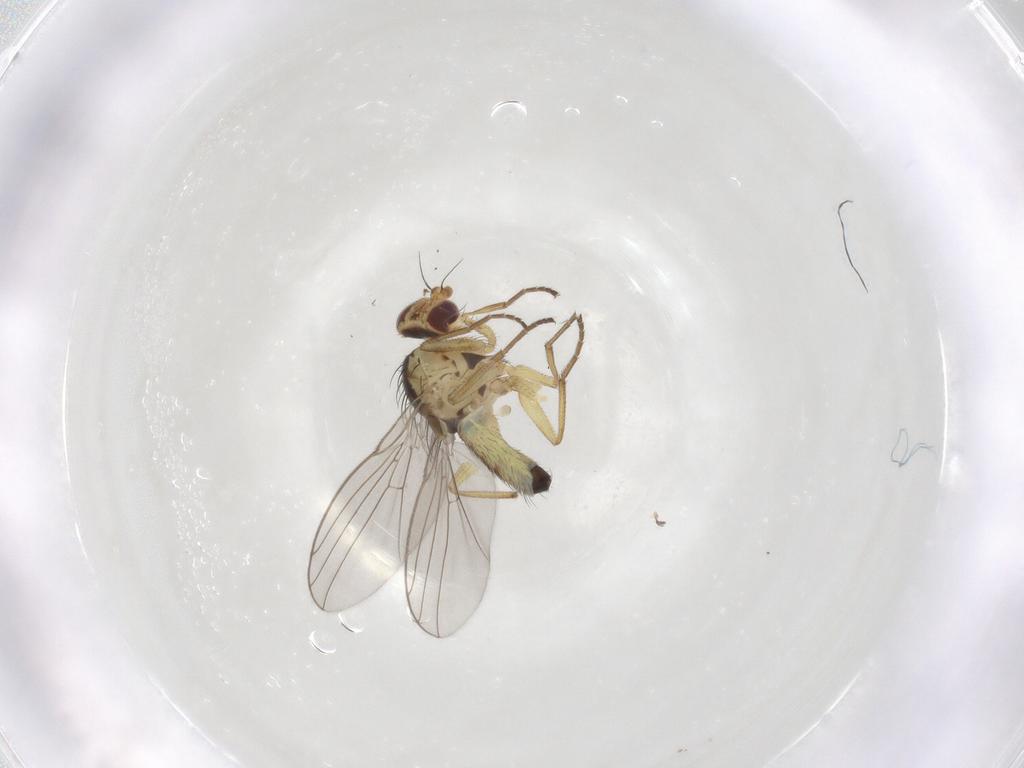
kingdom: Animalia
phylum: Arthropoda
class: Insecta
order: Diptera
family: Agromyzidae
